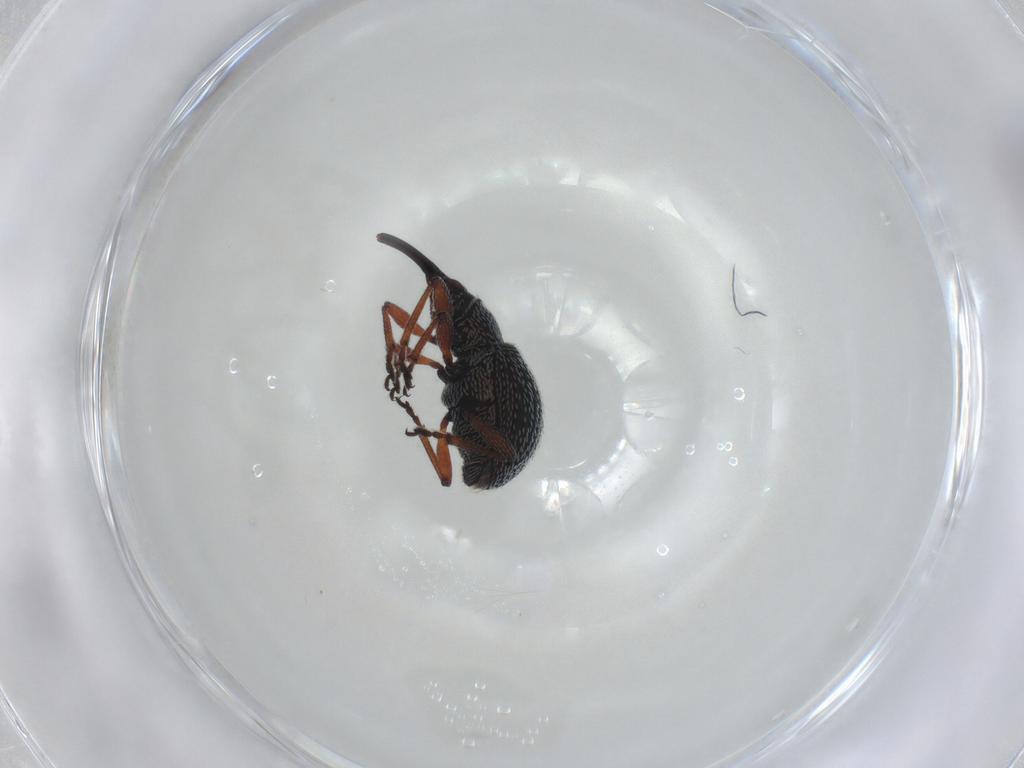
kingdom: Animalia
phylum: Arthropoda
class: Insecta
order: Coleoptera
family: Brentidae
